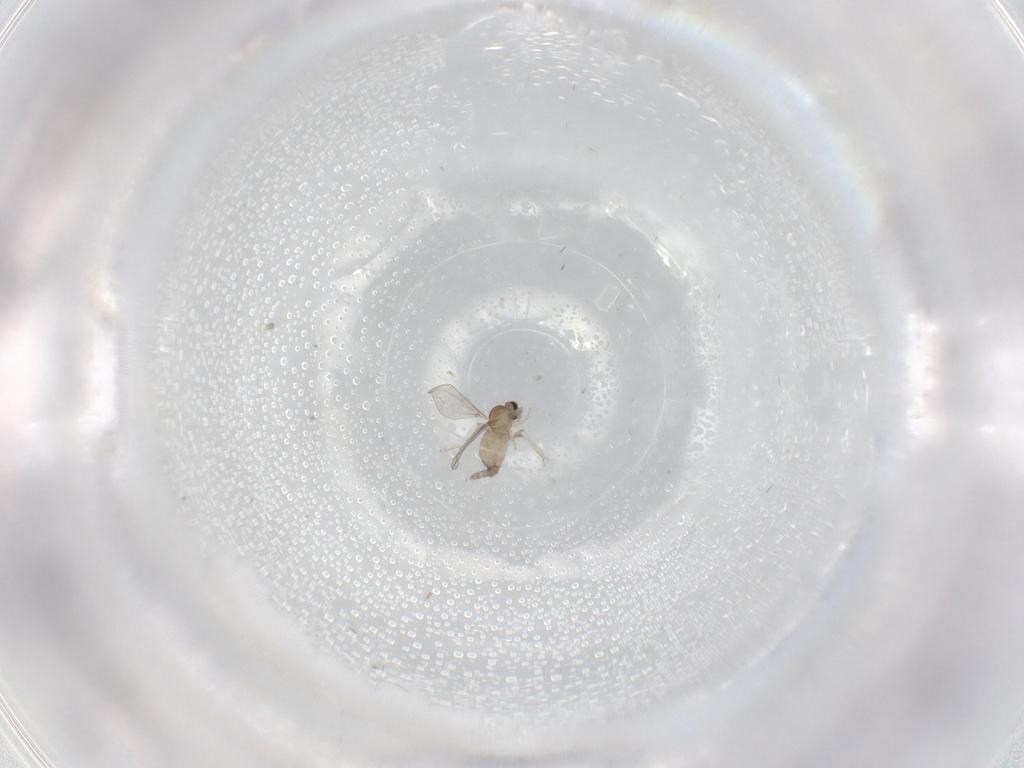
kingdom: Animalia
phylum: Arthropoda
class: Insecta
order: Diptera
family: Cecidomyiidae
